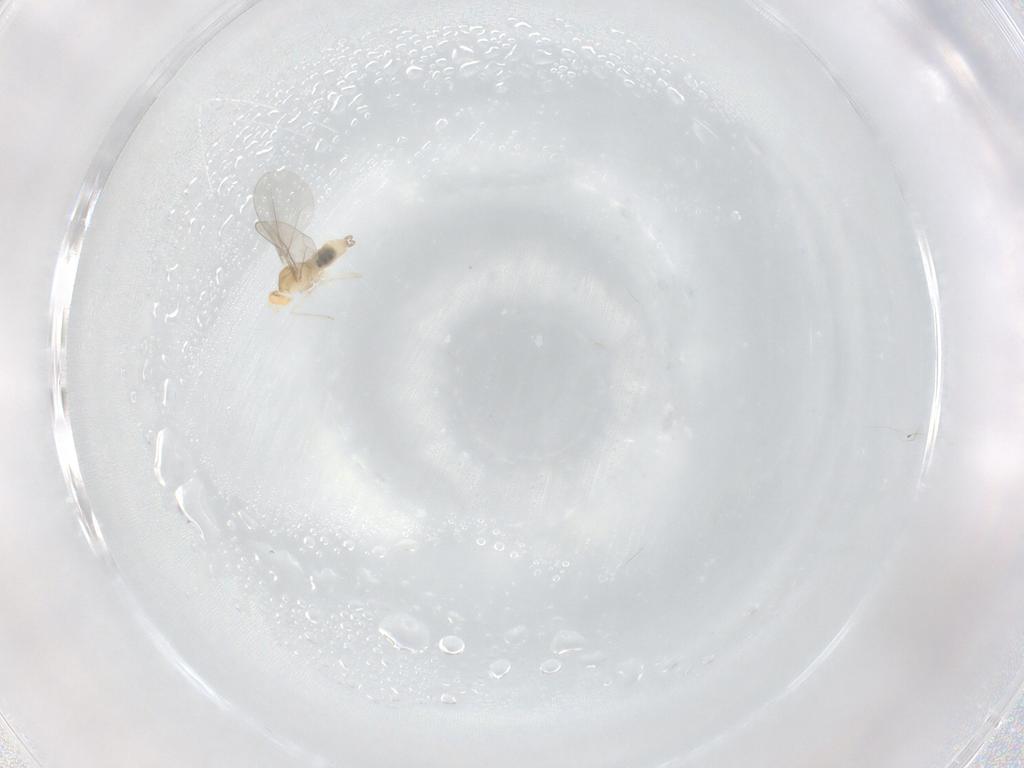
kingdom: Animalia
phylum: Arthropoda
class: Insecta
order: Diptera
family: Cecidomyiidae
